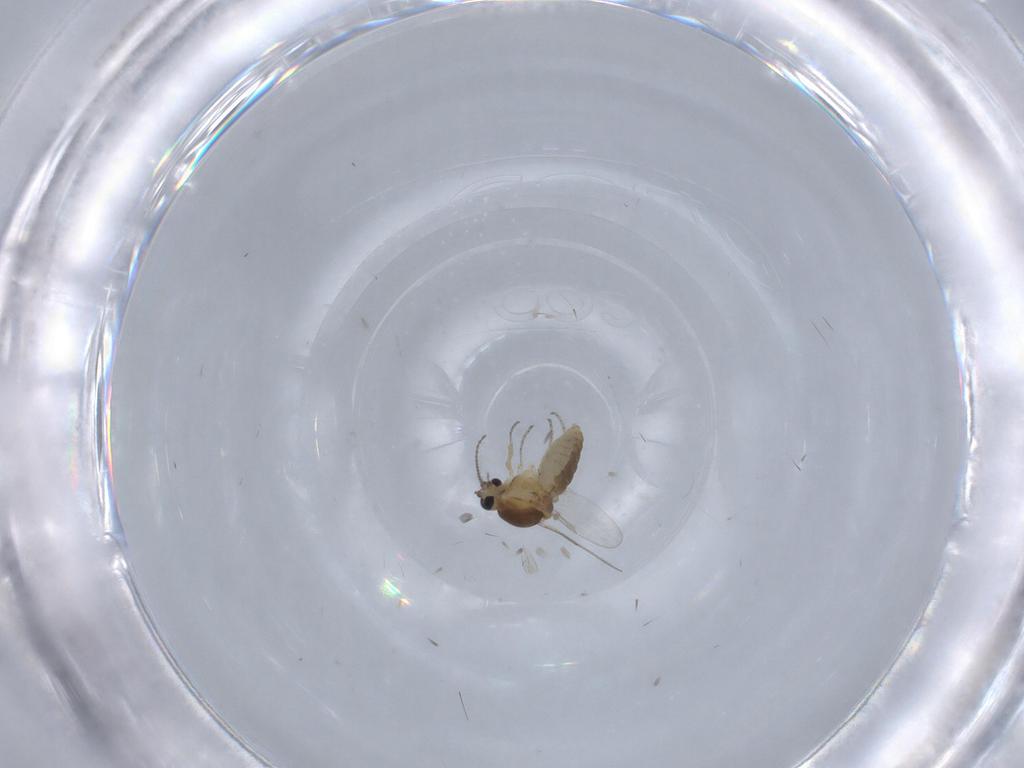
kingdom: Animalia
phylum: Arthropoda
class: Insecta
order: Diptera
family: Ceratopogonidae
